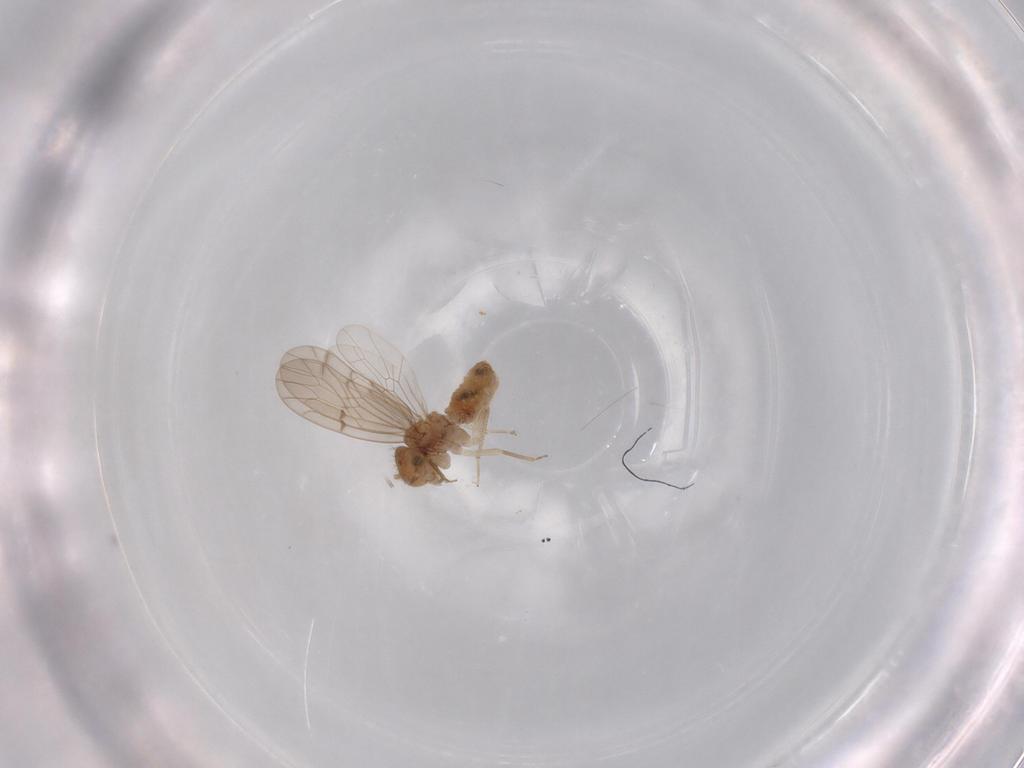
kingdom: Animalia
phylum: Arthropoda
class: Insecta
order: Psocodea
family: Ectopsocidae
